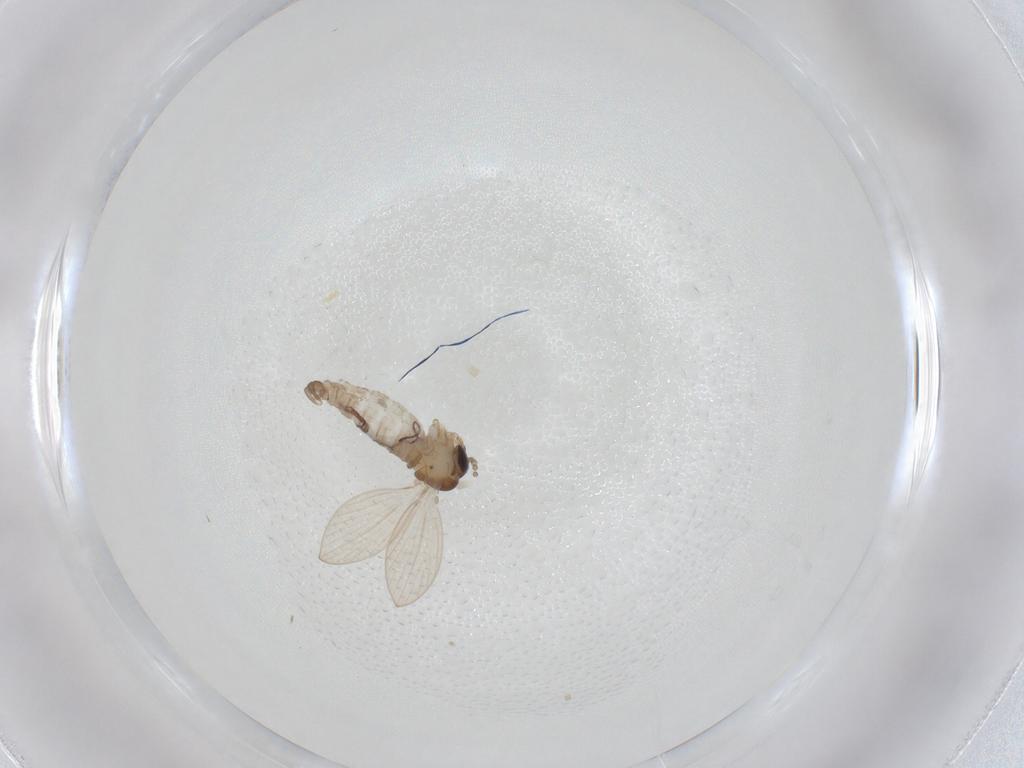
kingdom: Animalia
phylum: Arthropoda
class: Insecta
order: Diptera
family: Psychodidae
